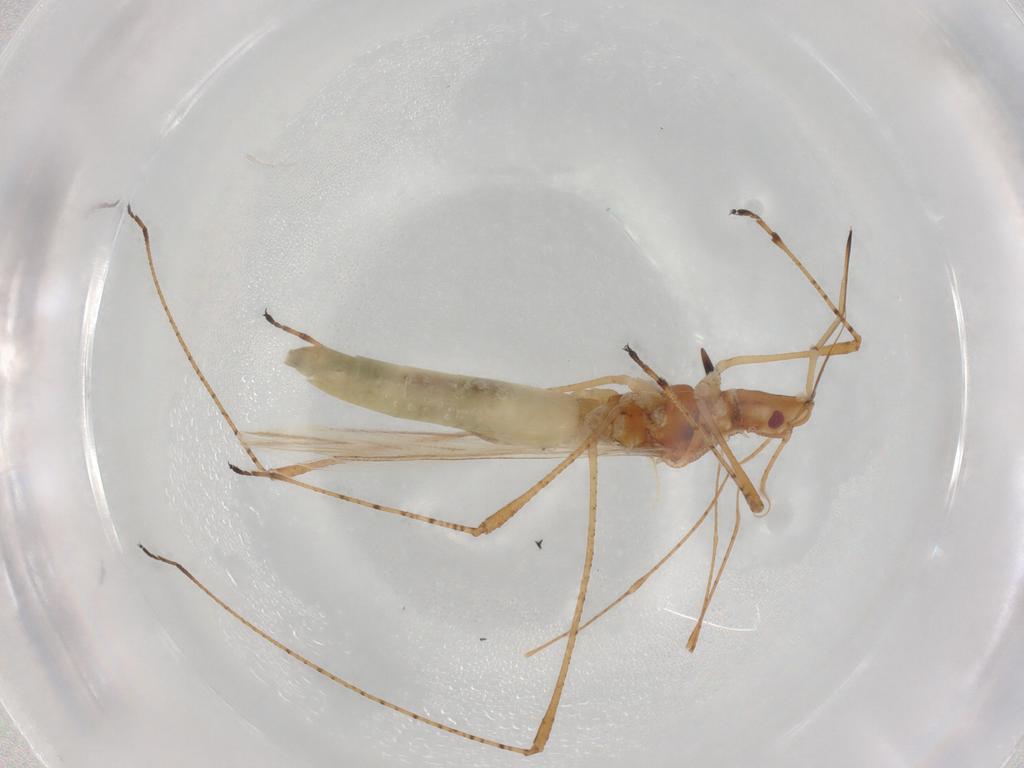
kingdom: Animalia
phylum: Arthropoda
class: Insecta
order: Hemiptera
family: Cymidae
